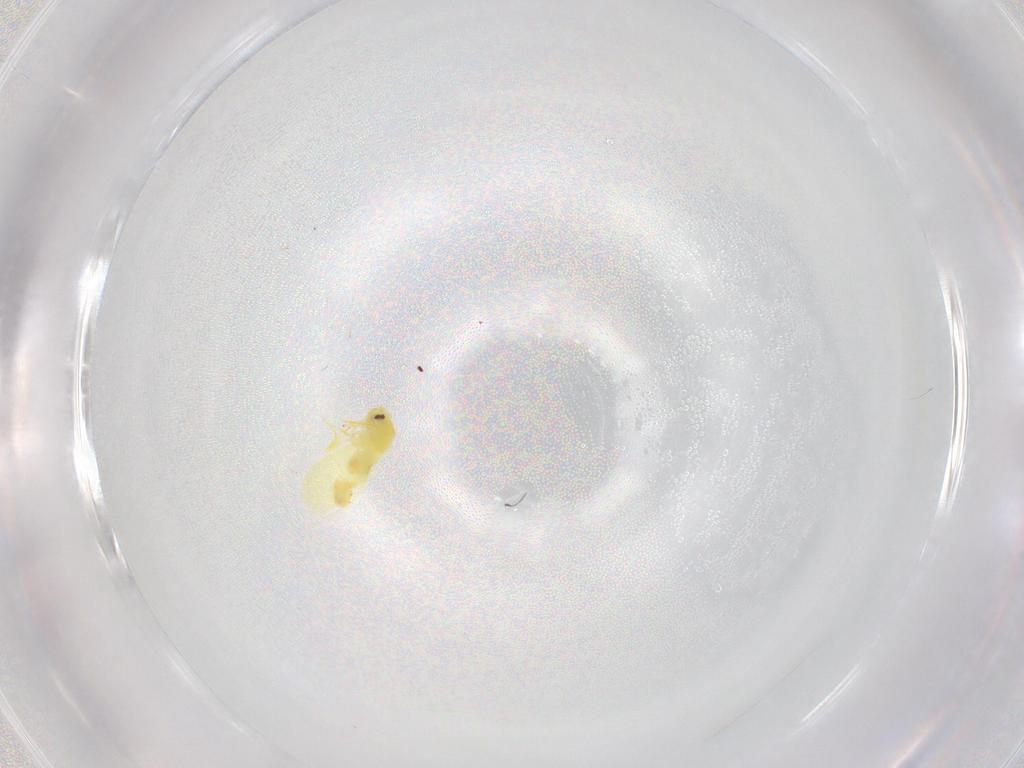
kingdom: Animalia
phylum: Arthropoda
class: Insecta
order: Hemiptera
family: Aleyrodidae
